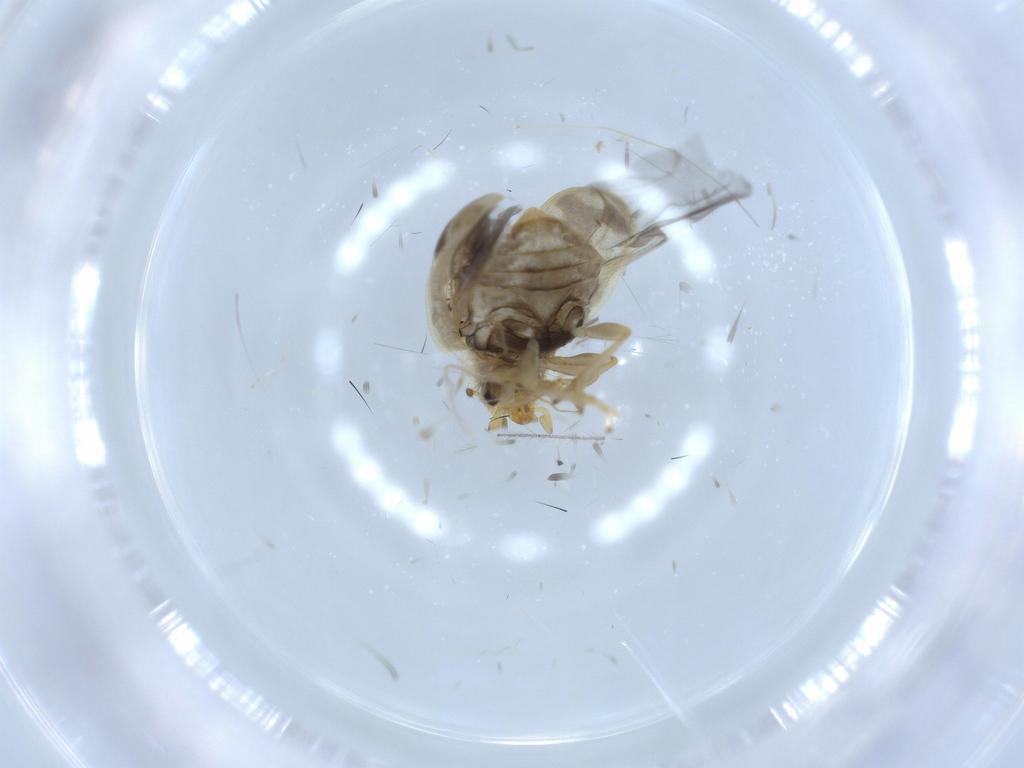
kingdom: Animalia
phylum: Arthropoda
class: Insecta
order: Coleoptera
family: Coccinellidae
